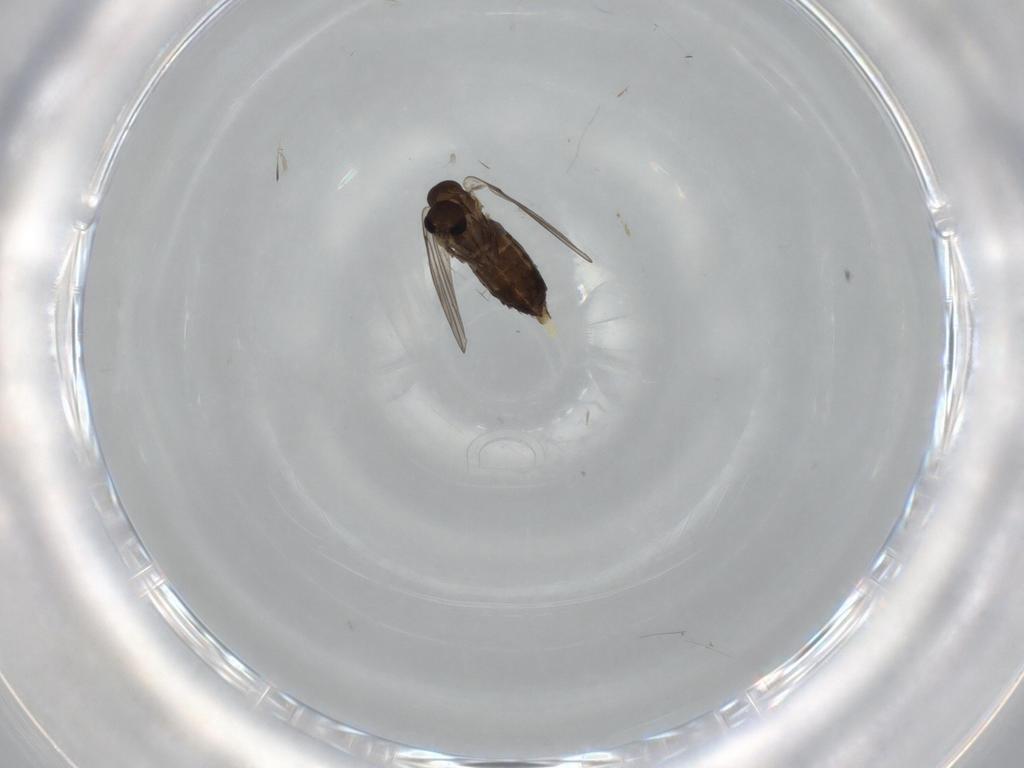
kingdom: Animalia
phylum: Arthropoda
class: Insecta
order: Diptera
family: Dolichopodidae
